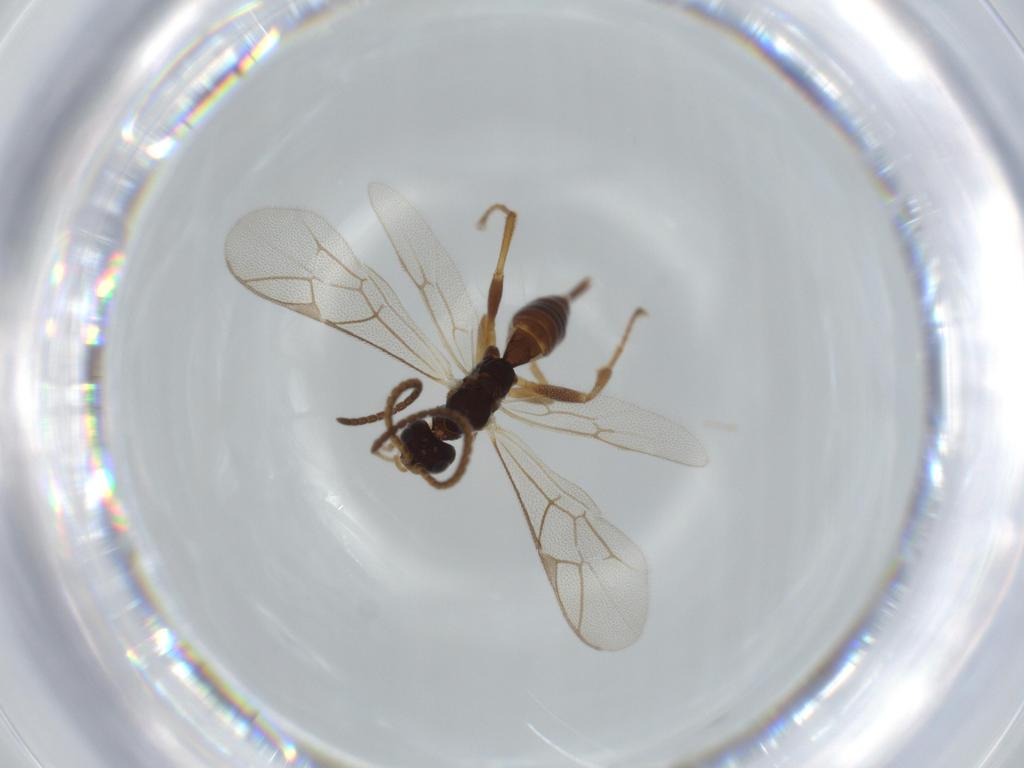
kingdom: Animalia
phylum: Arthropoda
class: Insecta
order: Hymenoptera
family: Ichneumonidae
